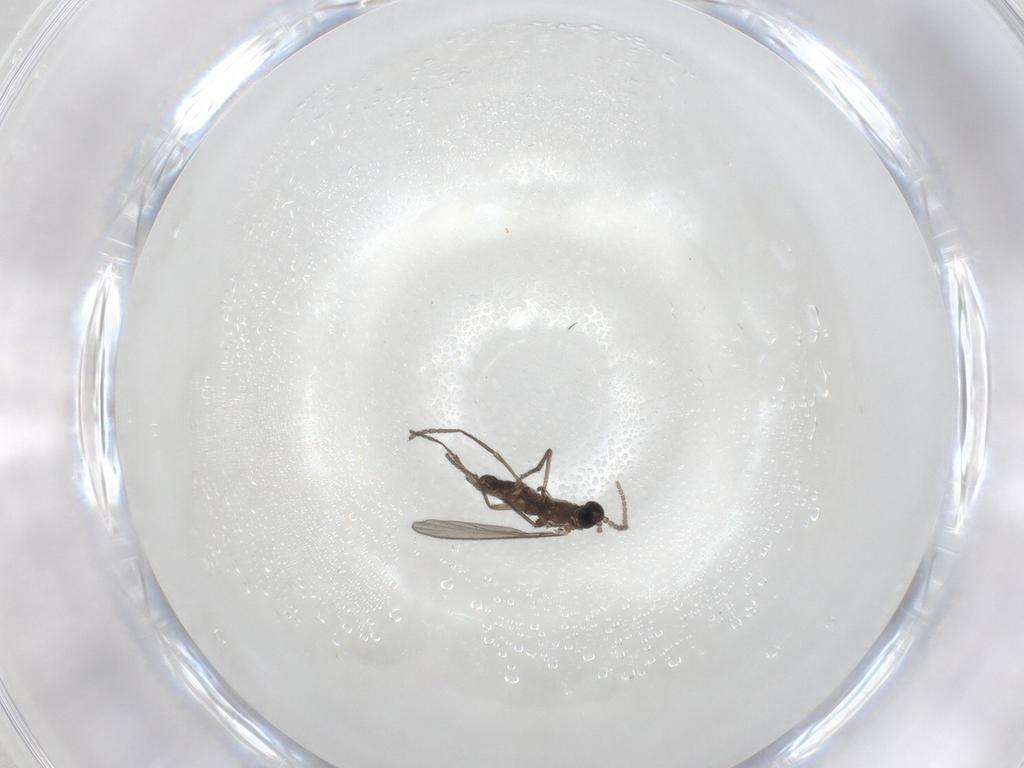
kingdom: Animalia
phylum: Arthropoda
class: Insecta
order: Diptera
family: Sciaridae
